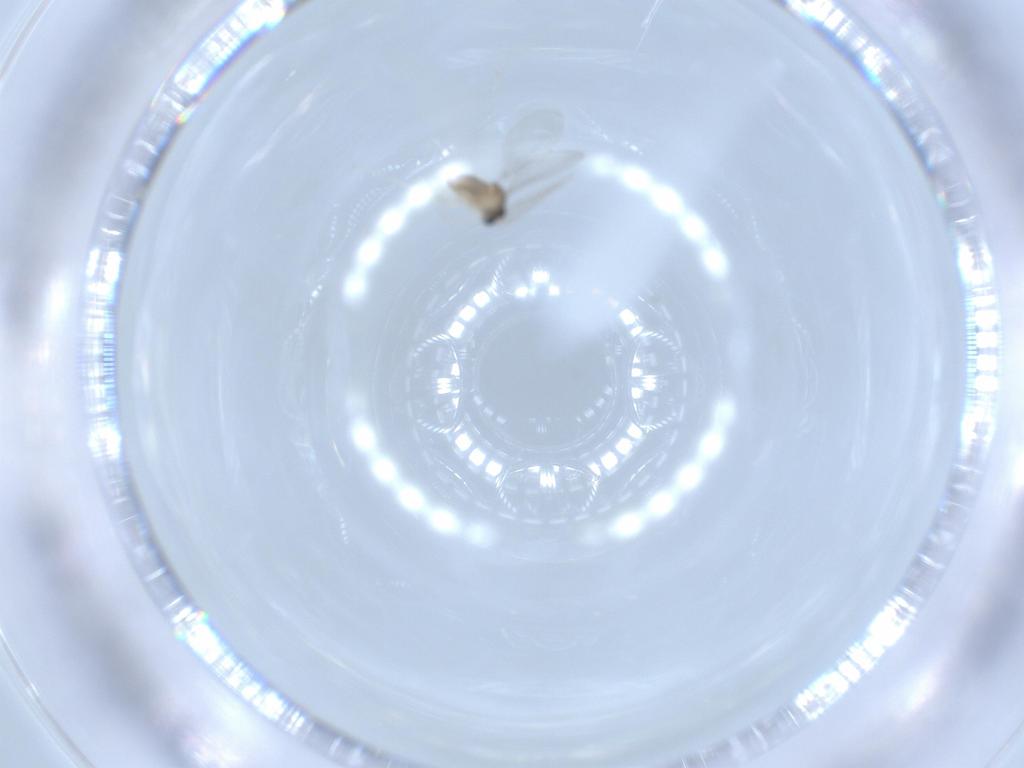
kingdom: Animalia
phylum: Arthropoda
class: Insecta
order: Diptera
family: Cecidomyiidae
